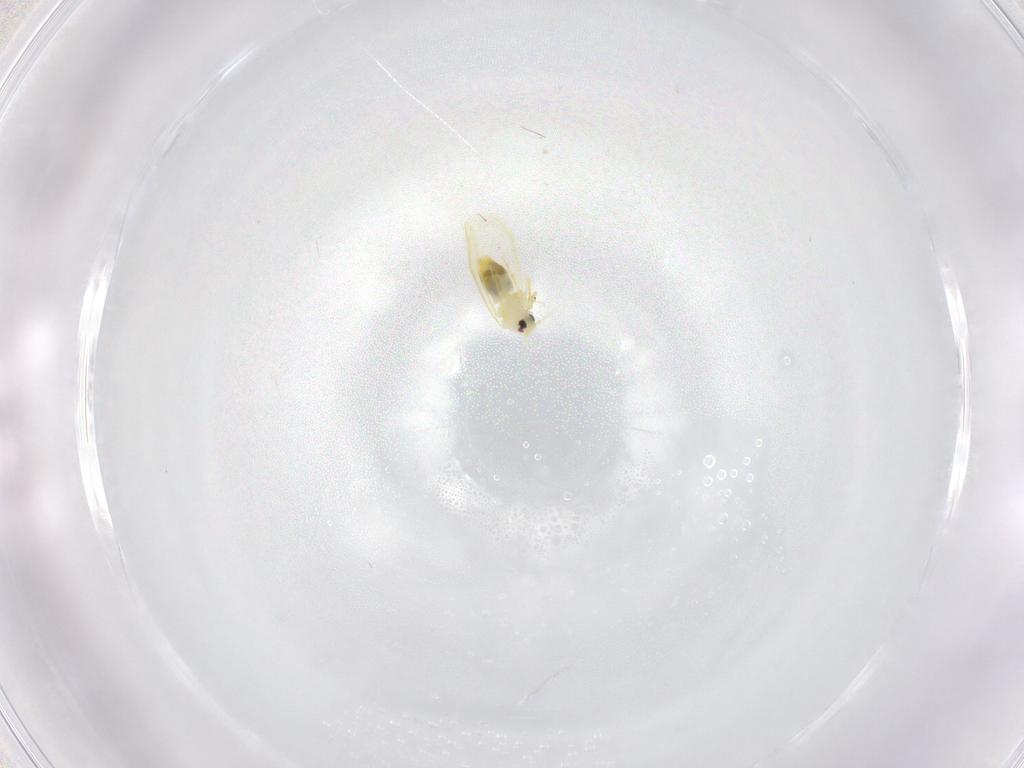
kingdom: Animalia
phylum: Arthropoda
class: Insecta
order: Hemiptera
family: Aleyrodidae
